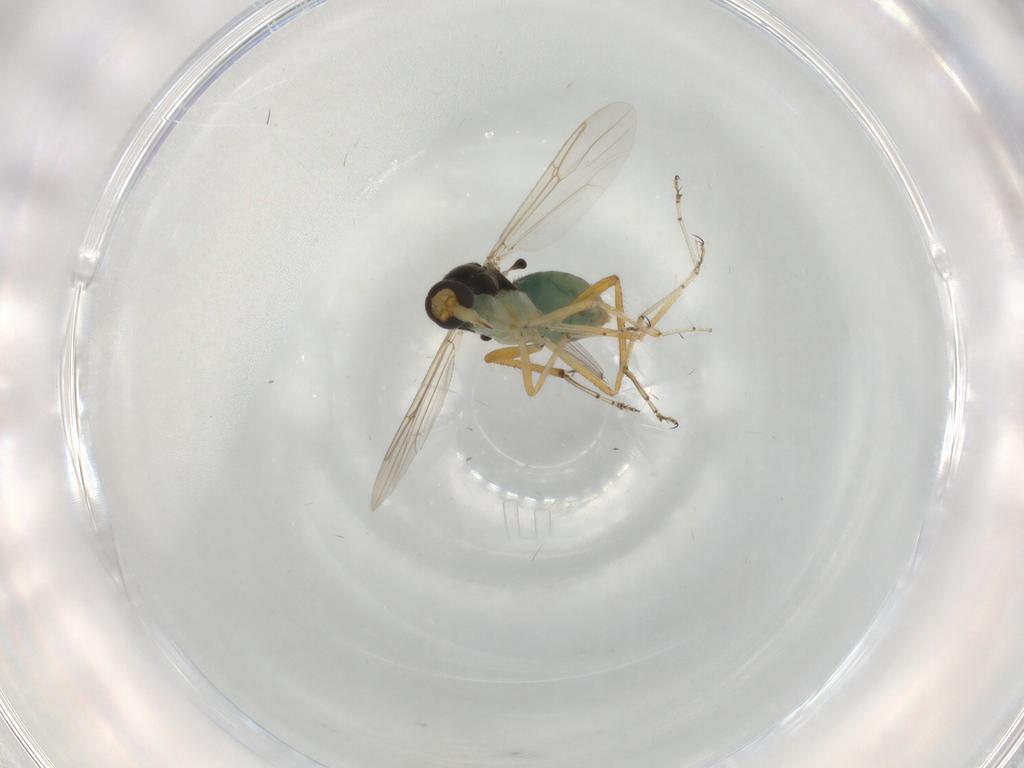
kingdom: Animalia
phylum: Arthropoda
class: Insecta
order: Diptera
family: Ceratopogonidae
